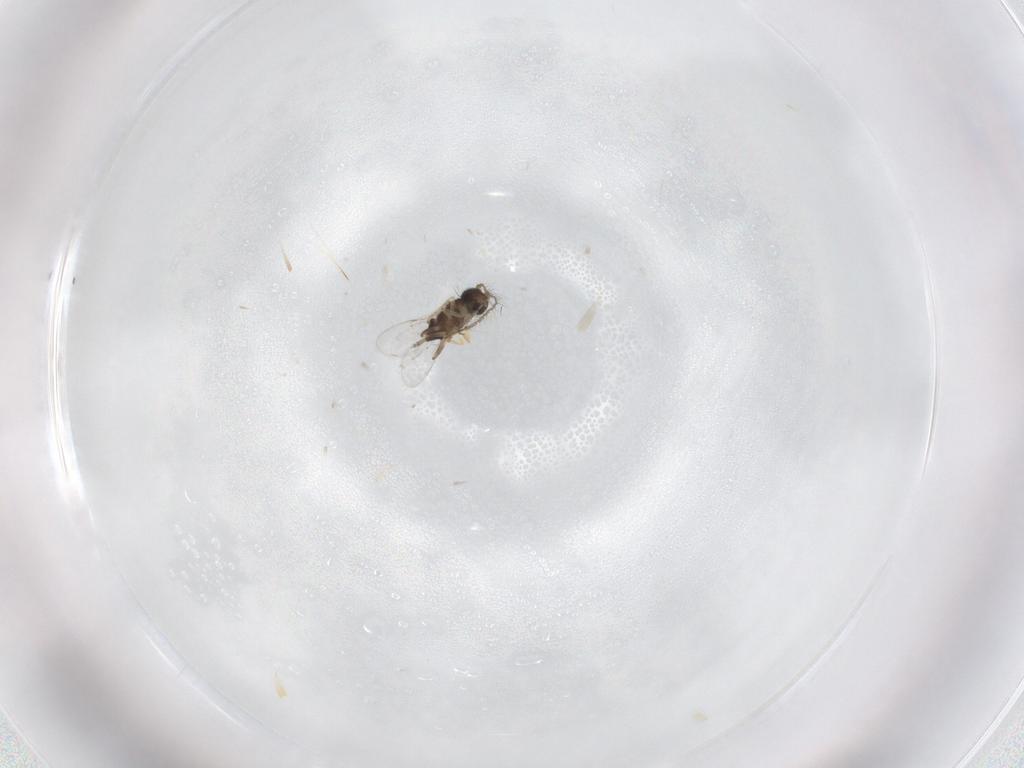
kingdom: Animalia
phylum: Arthropoda
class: Insecta
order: Hymenoptera
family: Encyrtidae
